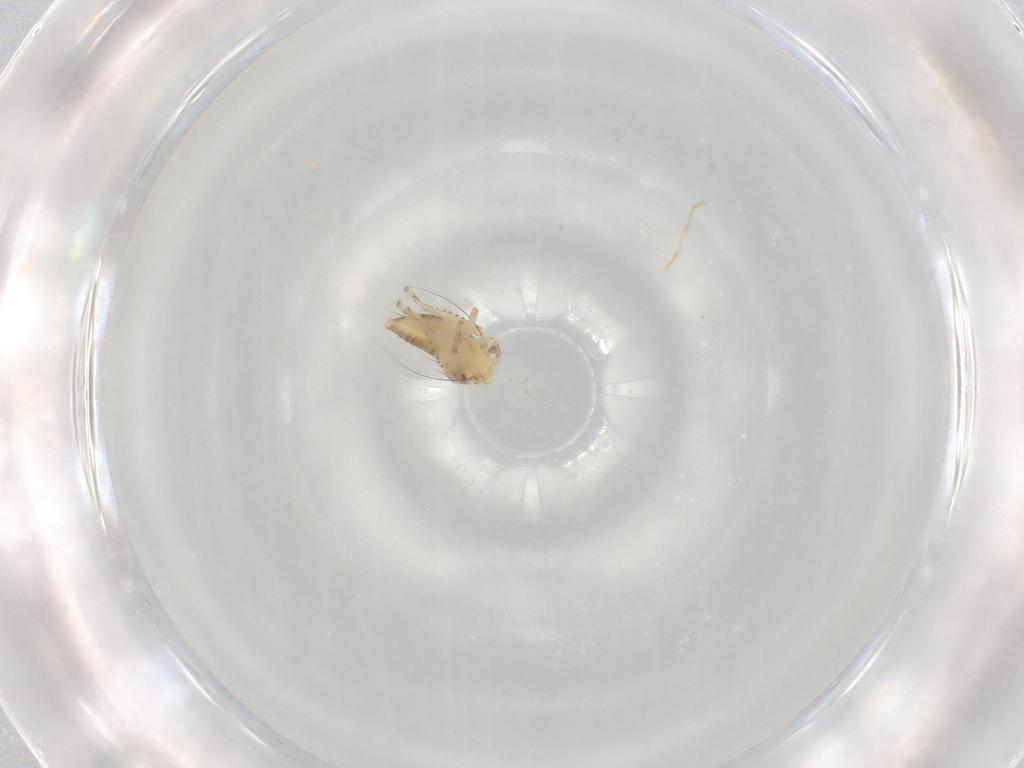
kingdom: Animalia
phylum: Arthropoda
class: Insecta
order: Hemiptera
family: Cicadellidae
